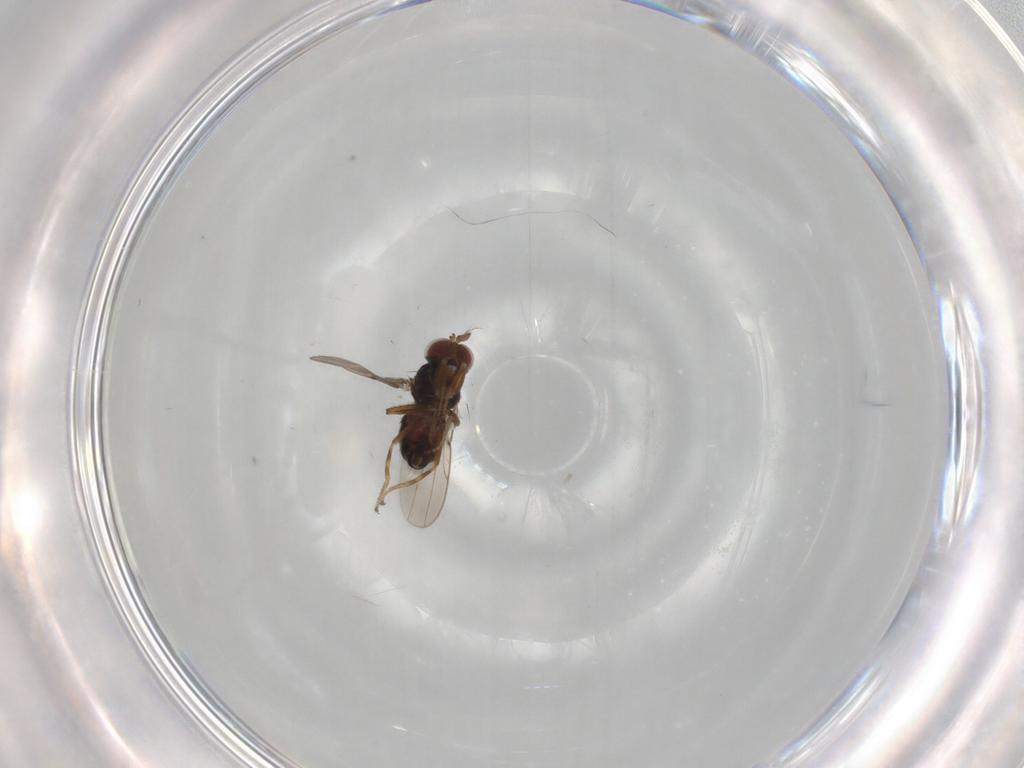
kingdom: Animalia
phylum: Arthropoda
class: Insecta
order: Diptera
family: Ephydridae
